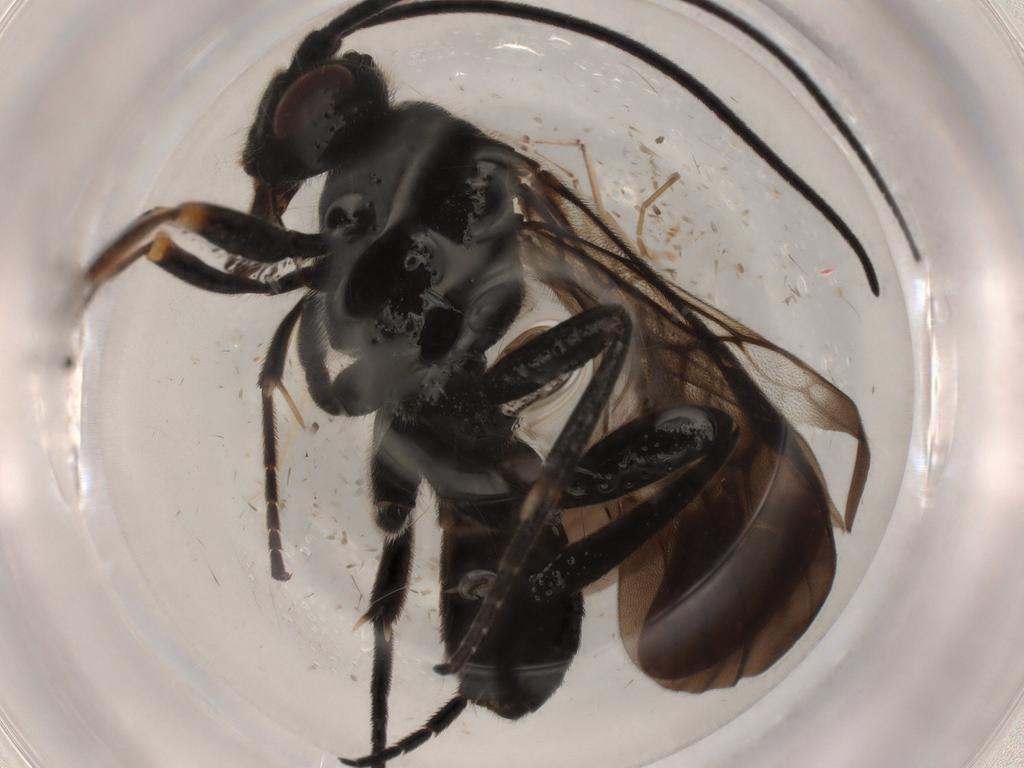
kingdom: Animalia
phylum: Arthropoda
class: Insecta
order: Hymenoptera
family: Braconidae
